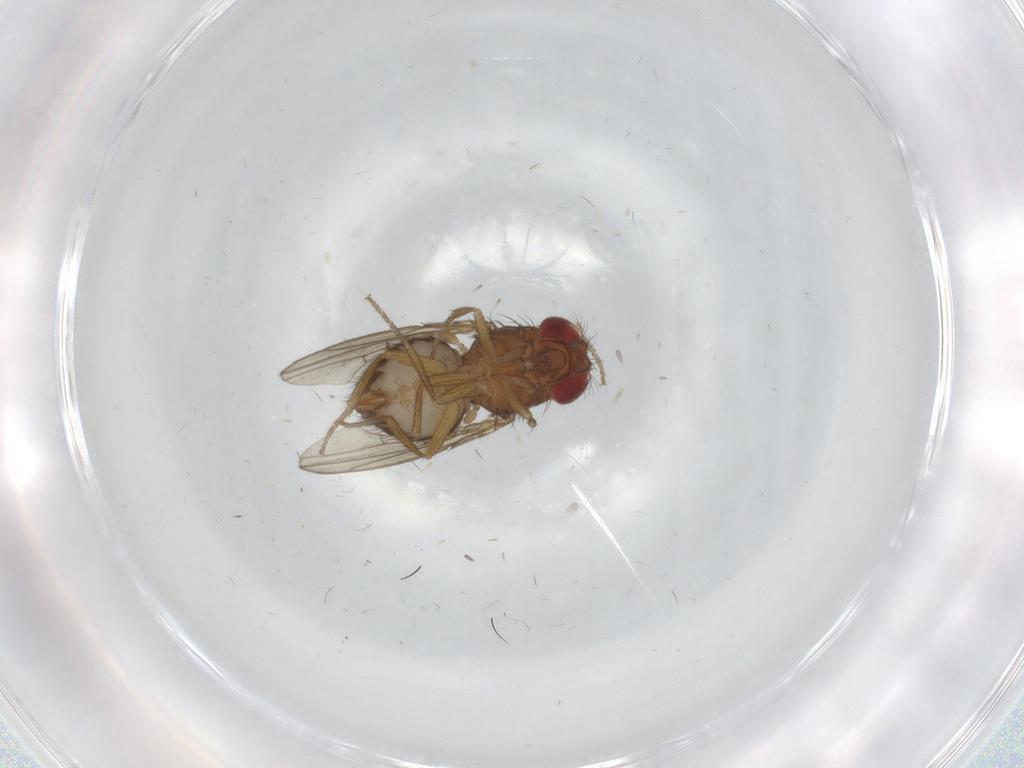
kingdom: Animalia
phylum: Arthropoda
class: Insecta
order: Diptera
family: Drosophilidae
